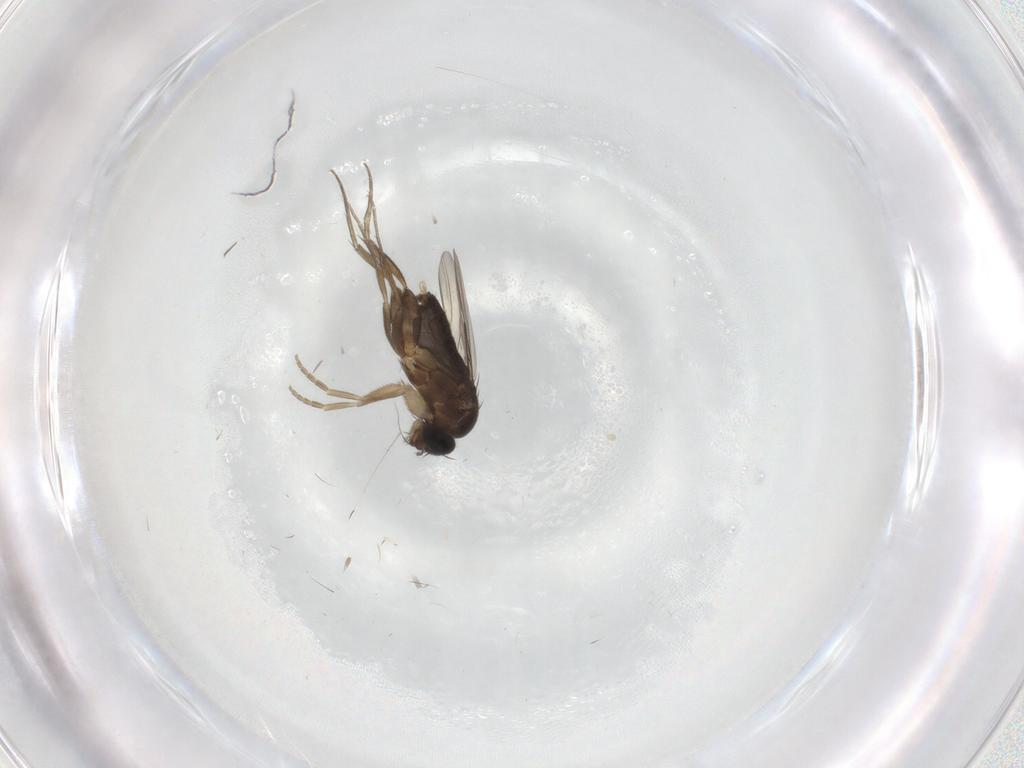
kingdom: Animalia
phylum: Arthropoda
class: Insecta
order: Diptera
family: Phoridae
